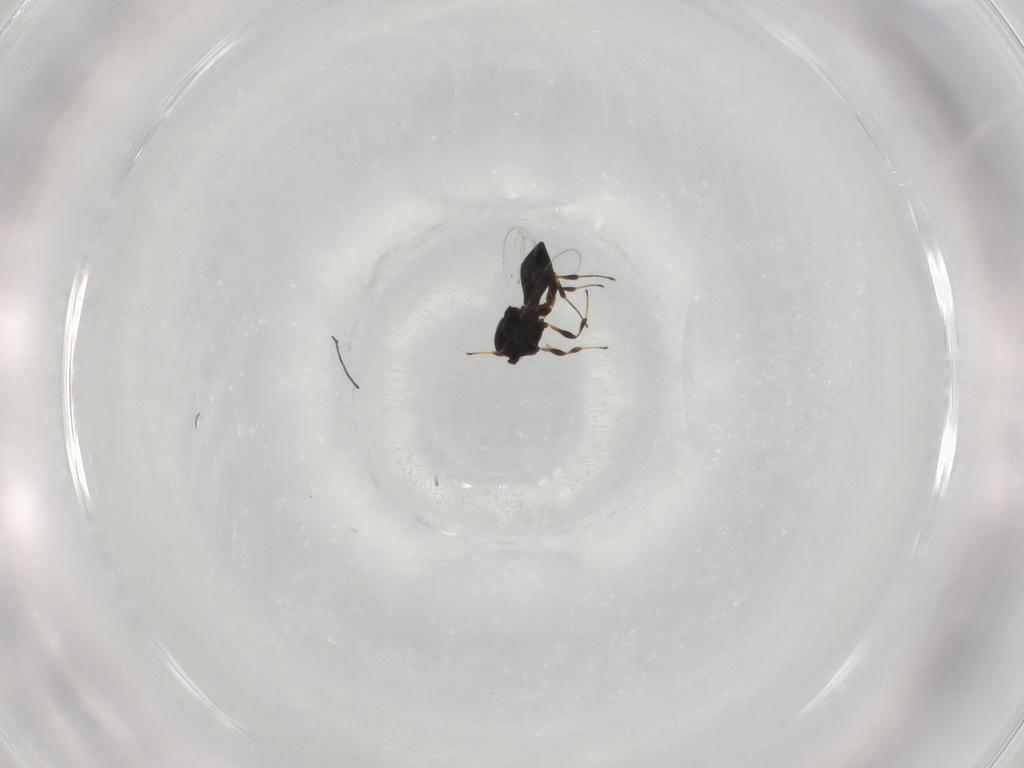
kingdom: Animalia
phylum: Arthropoda
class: Insecta
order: Hymenoptera
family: Platygastridae
